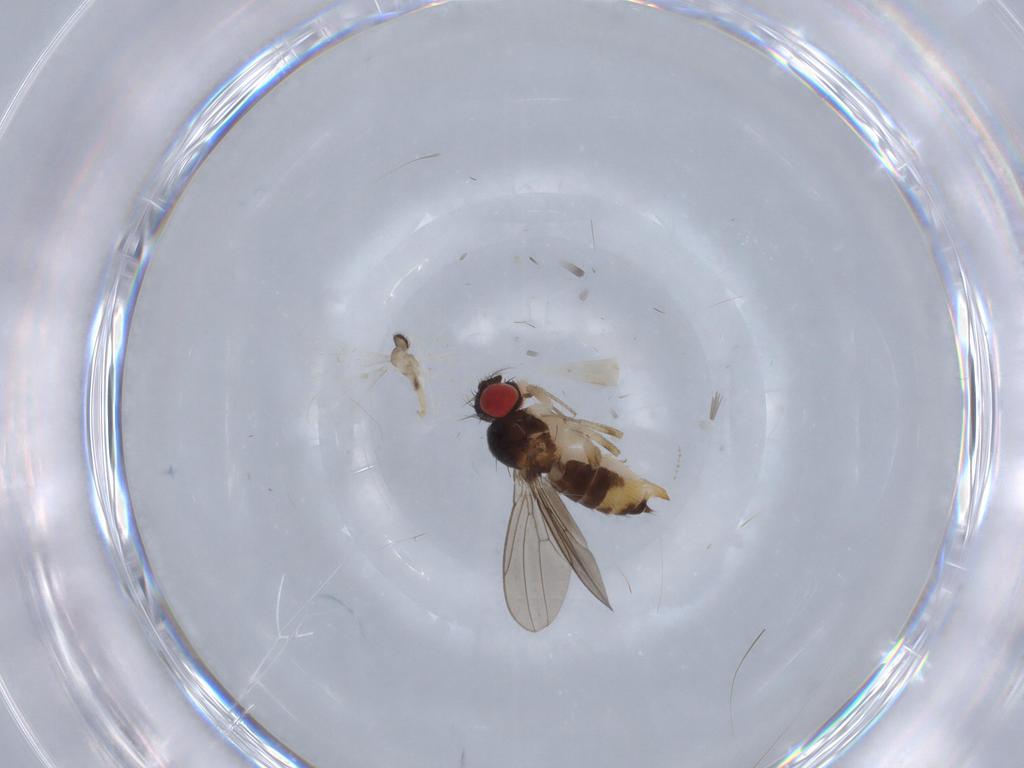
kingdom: Animalia
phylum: Arthropoda
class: Insecta
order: Diptera
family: Drosophilidae
